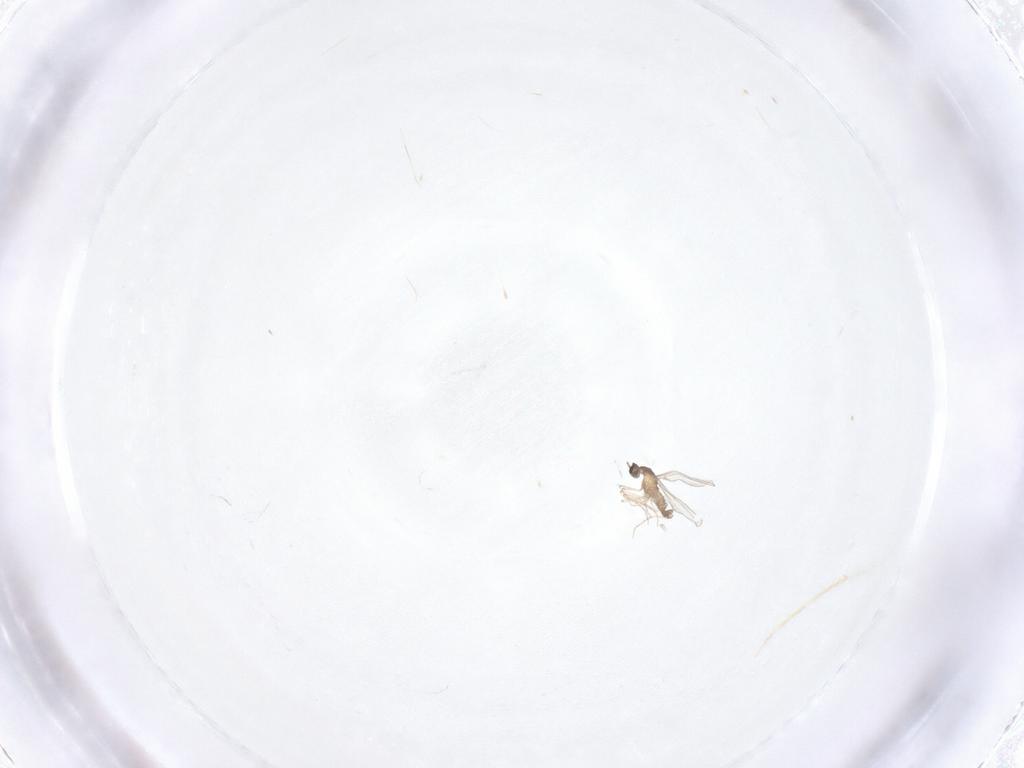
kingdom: Animalia
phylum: Arthropoda
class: Insecta
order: Diptera
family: Cecidomyiidae
